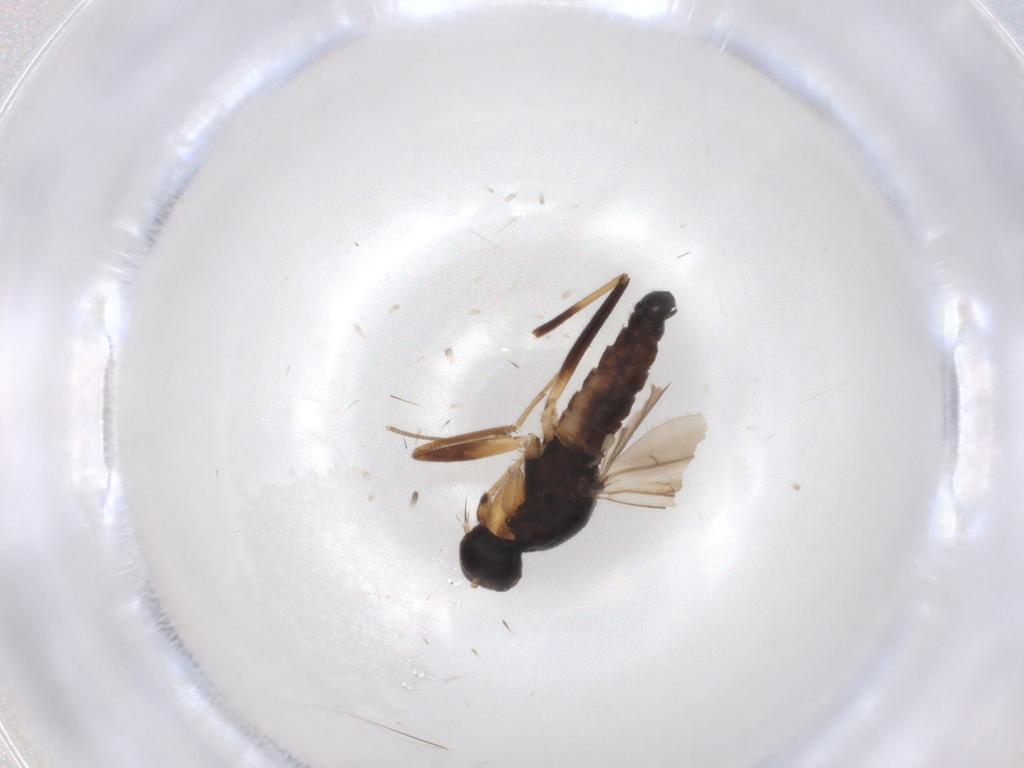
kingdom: Animalia
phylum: Arthropoda
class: Insecta
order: Diptera
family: Hybotidae
